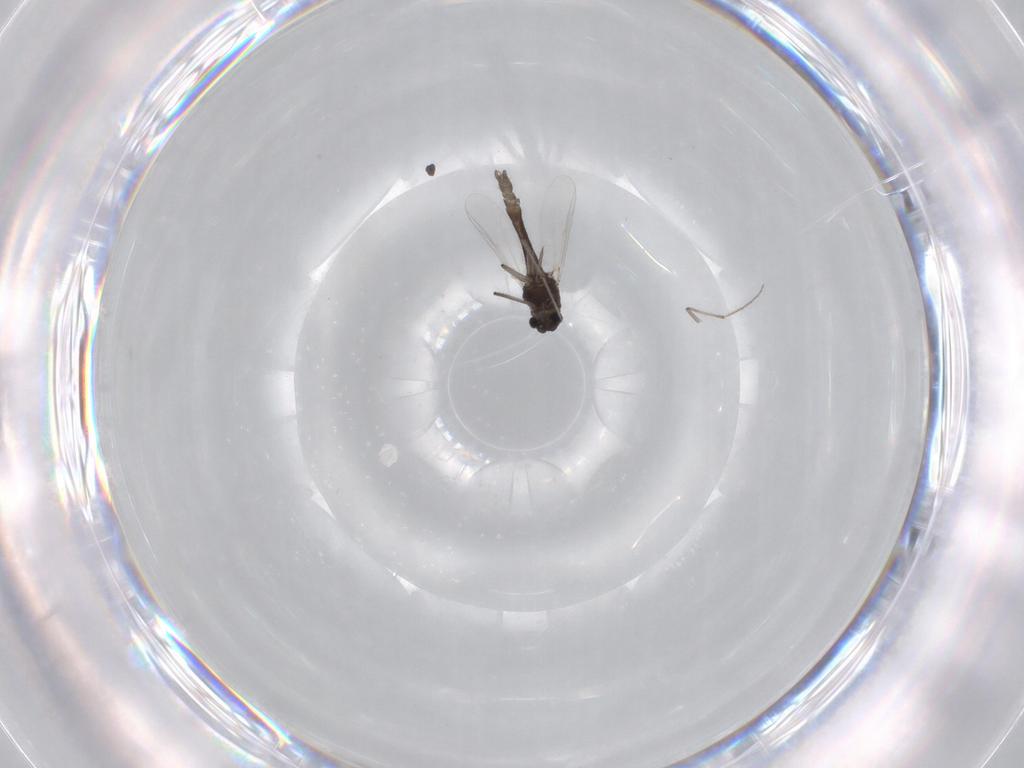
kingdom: Animalia
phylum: Arthropoda
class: Insecta
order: Diptera
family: Chironomidae
